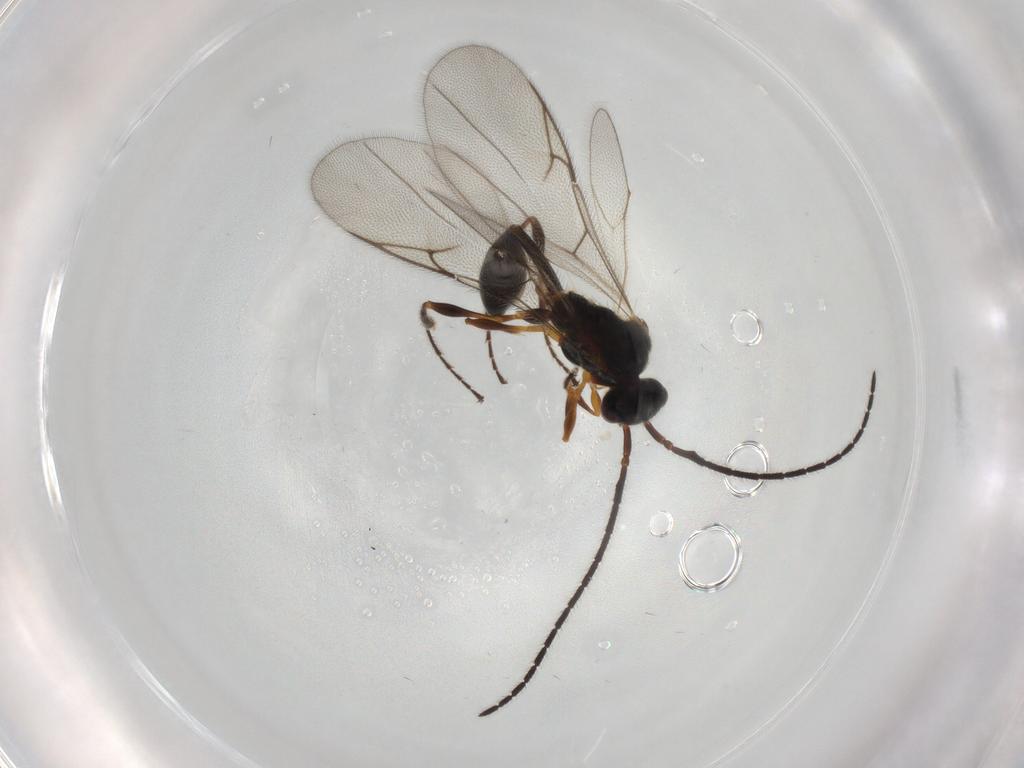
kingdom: Animalia
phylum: Arthropoda
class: Insecta
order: Hymenoptera
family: Diapriidae
